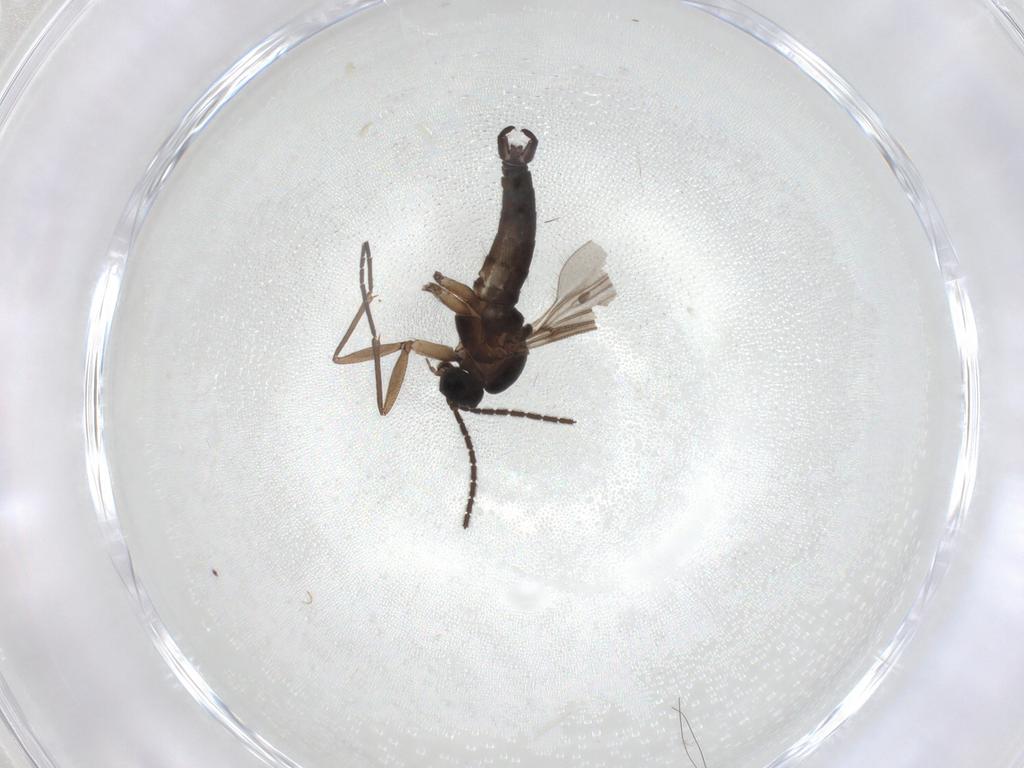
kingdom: Animalia
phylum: Arthropoda
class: Insecta
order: Diptera
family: Sciaridae
